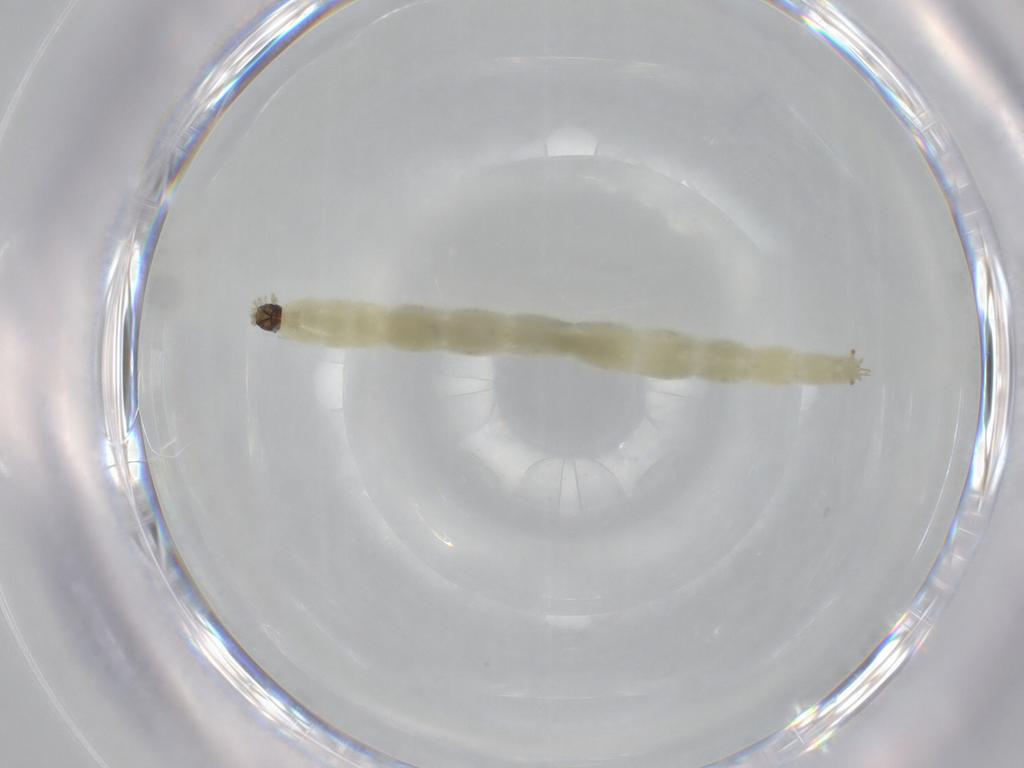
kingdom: Animalia
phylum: Arthropoda
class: Insecta
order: Diptera
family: Chironomidae
